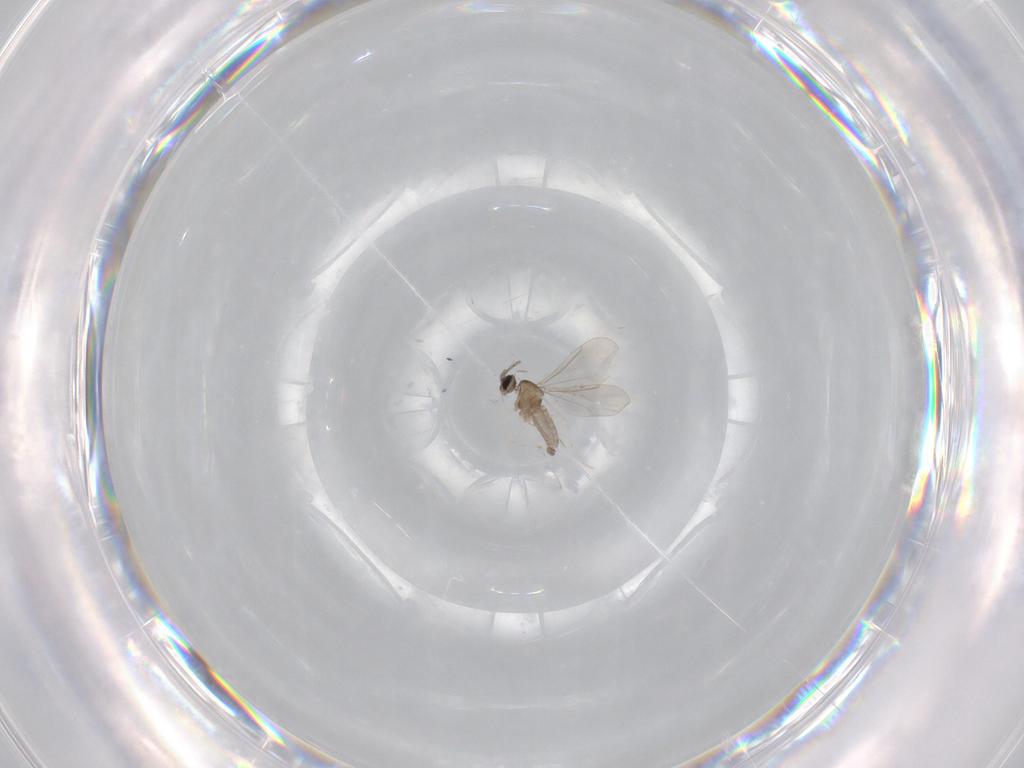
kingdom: Animalia
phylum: Arthropoda
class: Insecta
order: Diptera
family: Cecidomyiidae
